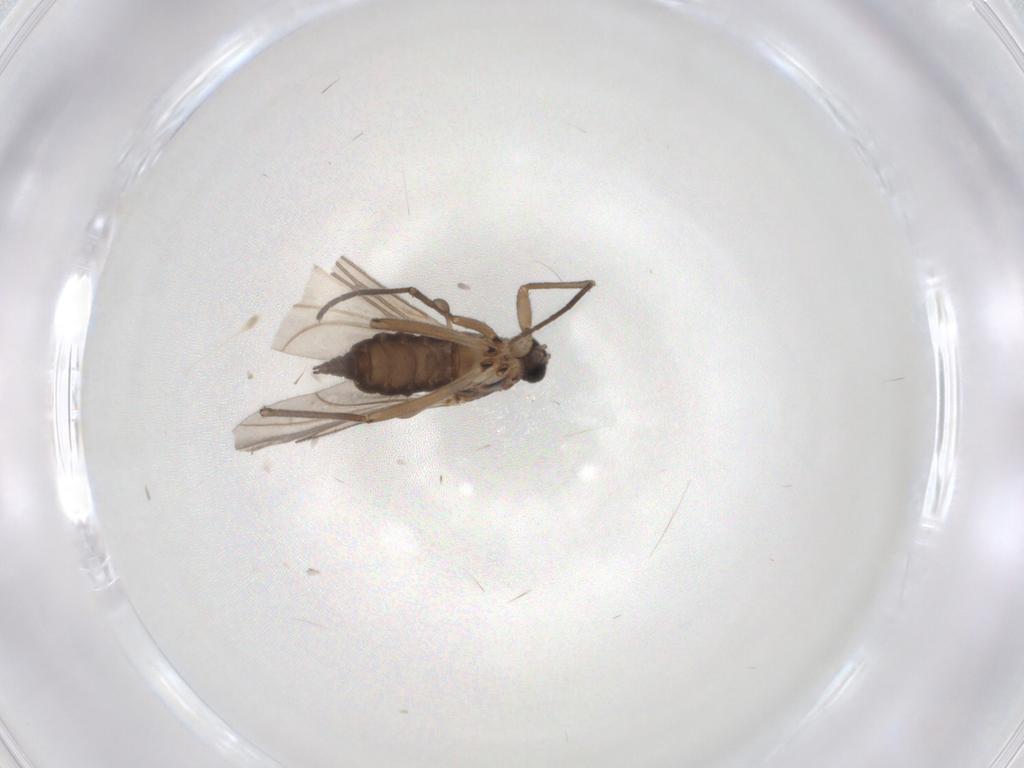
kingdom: Animalia
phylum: Arthropoda
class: Insecta
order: Diptera
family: Sciaridae
